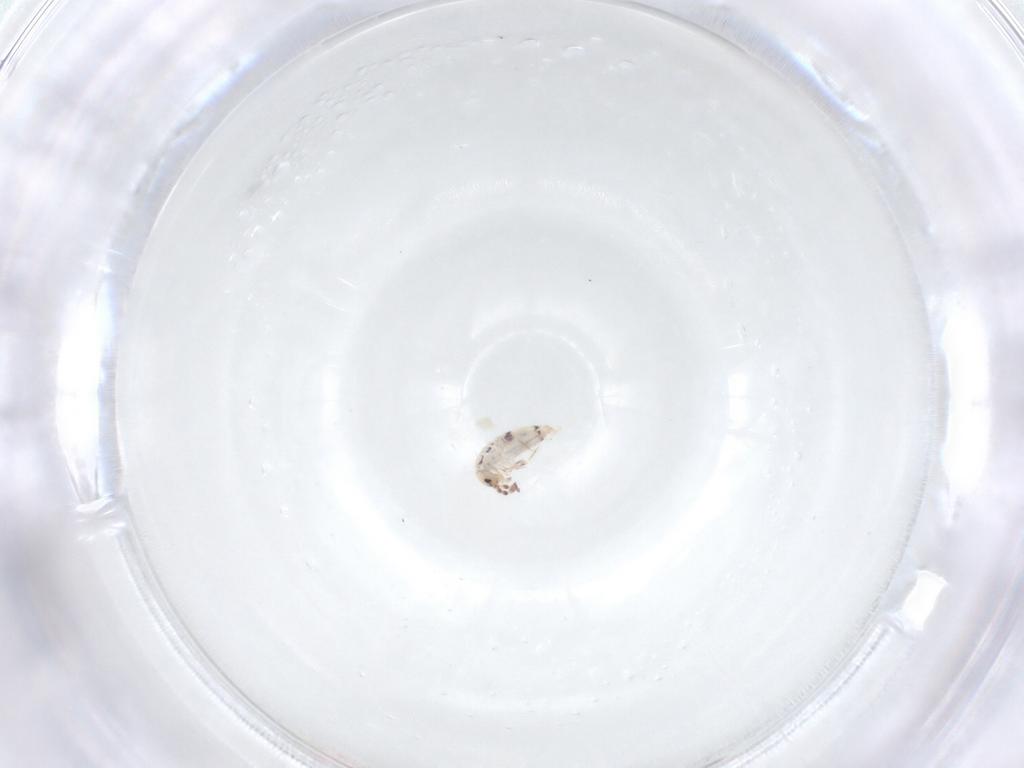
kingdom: Animalia
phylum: Arthropoda
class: Collembola
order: Entomobryomorpha
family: Entomobryidae
